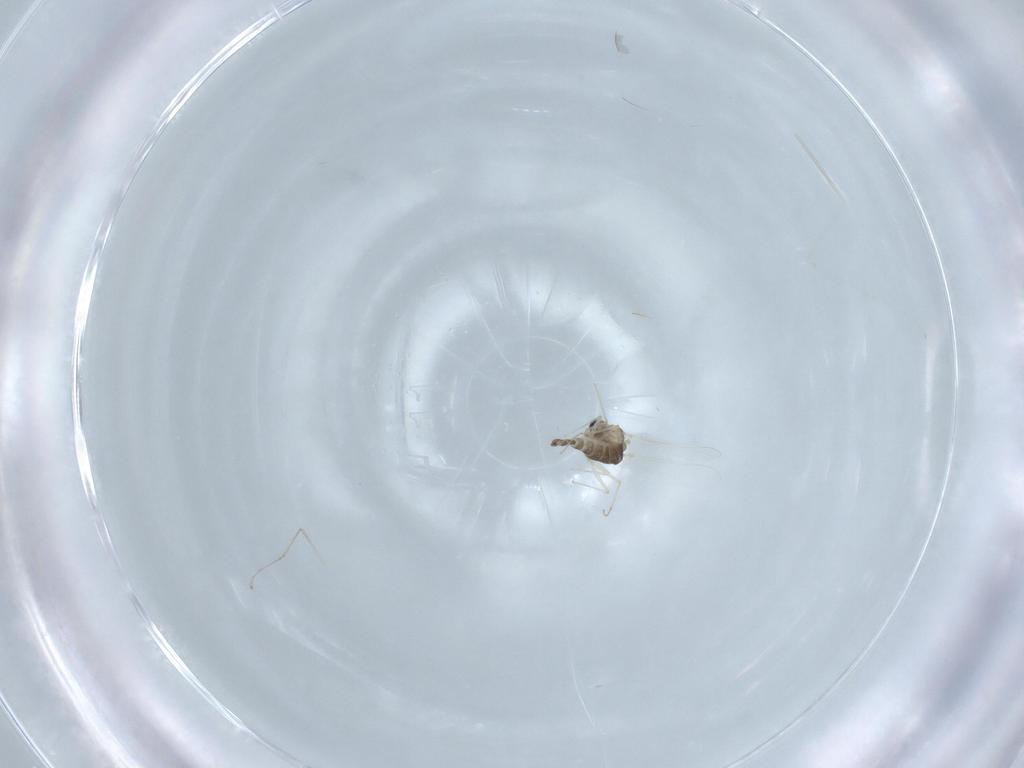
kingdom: Animalia
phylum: Arthropoda
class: Insecta
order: Diptera
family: Chironomidae
